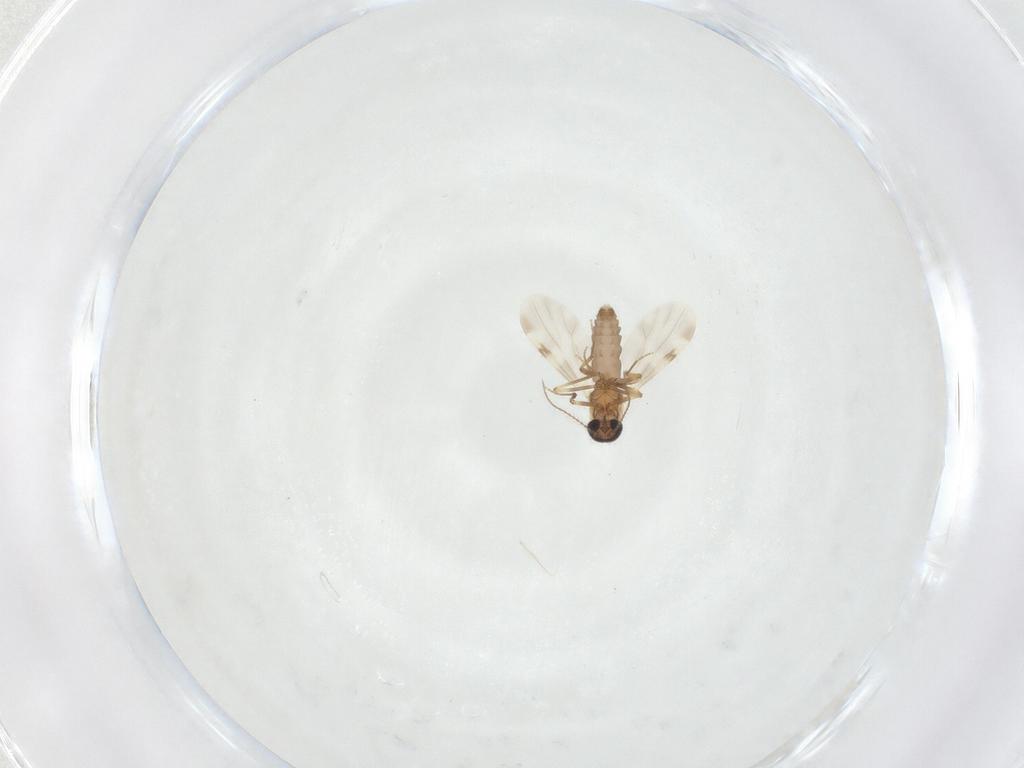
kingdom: Animalia
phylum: Arthropoda
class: Insecta
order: Diptera
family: Ceratopogonidae
